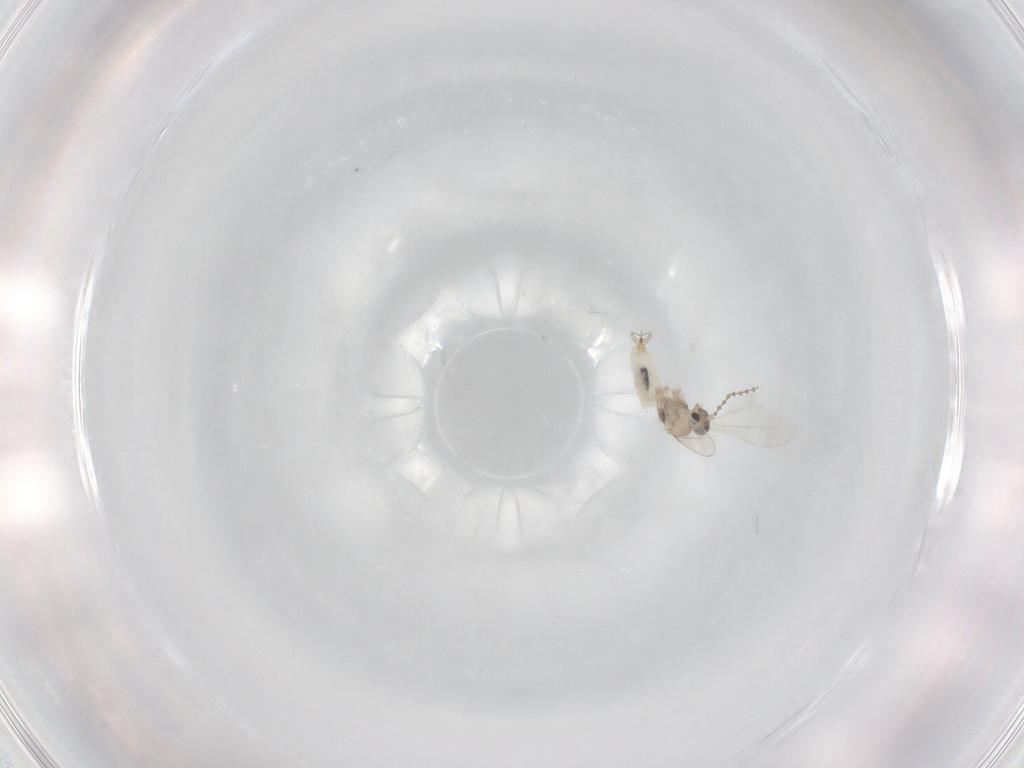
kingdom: Animalia
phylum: Arthropoda
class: Insecta
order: Diptera
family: Cecidomyiidae
